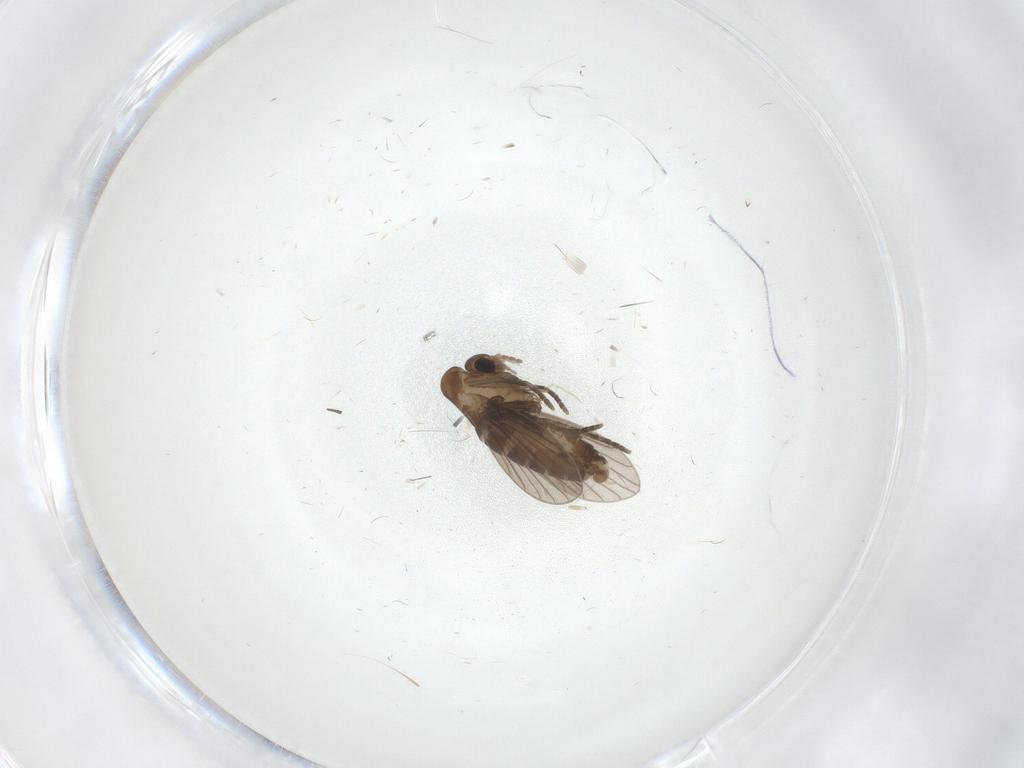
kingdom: Animalia
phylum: Arthropoda
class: Insecta
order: Diptera
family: Psychodidae
